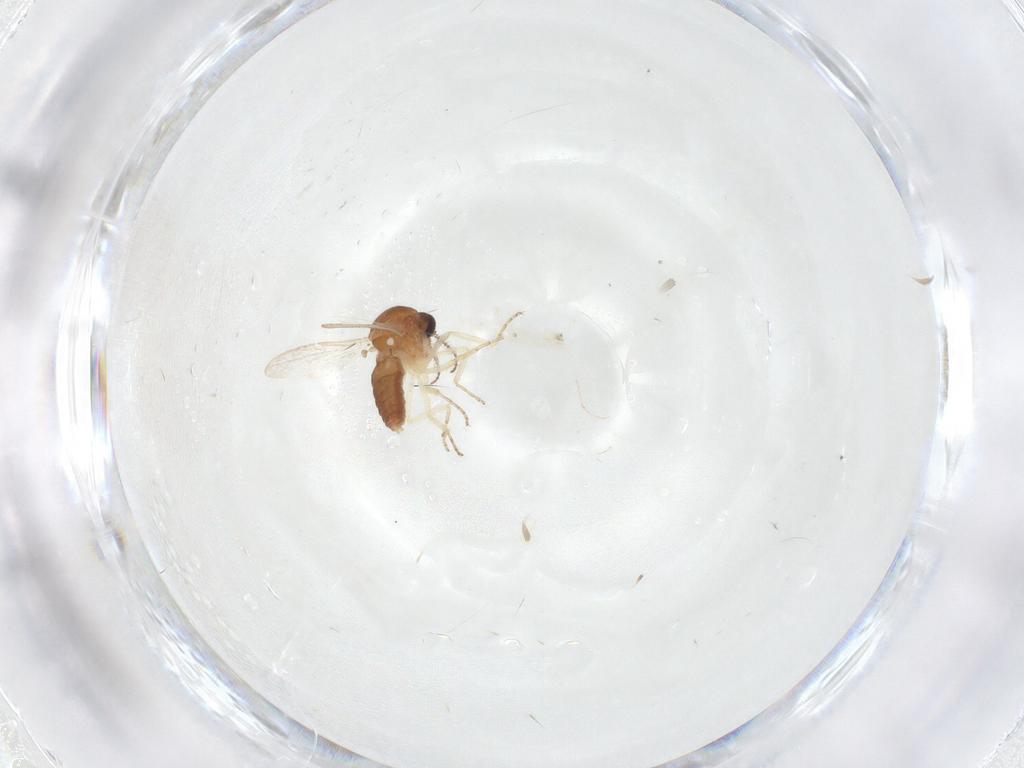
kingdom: Animalia
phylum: Arthropoda
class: Insecta
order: Diptera
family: Ceratopogonidae
